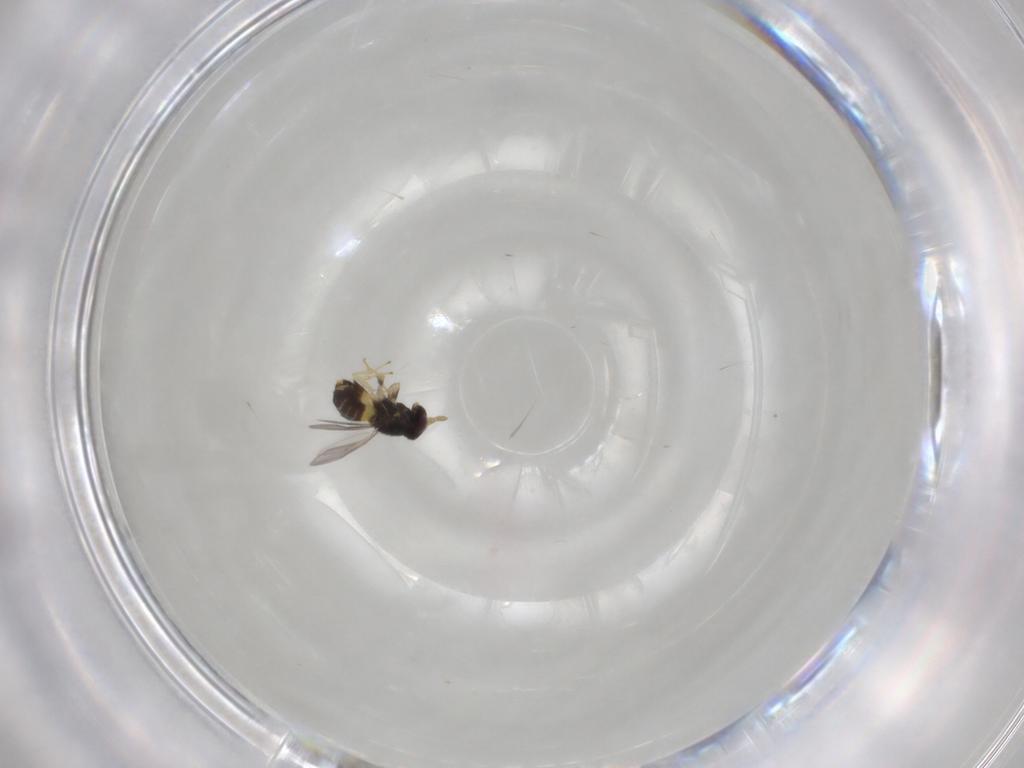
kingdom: Animalia
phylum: Arthropoda
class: Insecta
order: Hymenoptera
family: Aphelinidae
